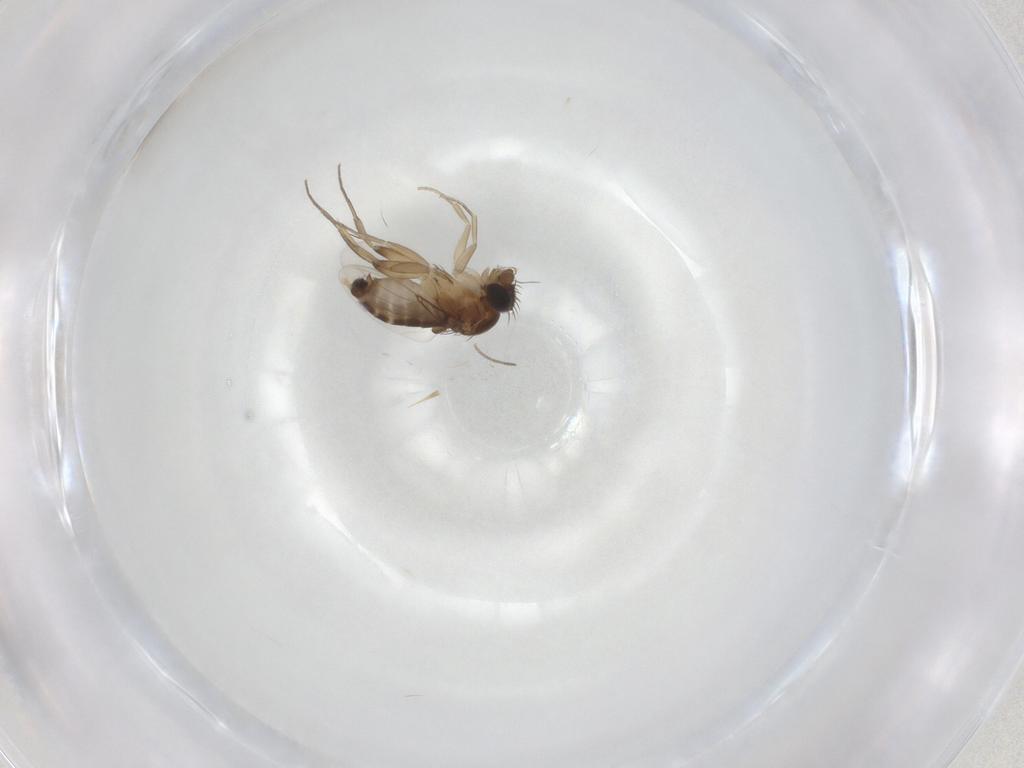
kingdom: Animalia
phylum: Arthropoda
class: Insecta
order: Diptera
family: Phoridae
